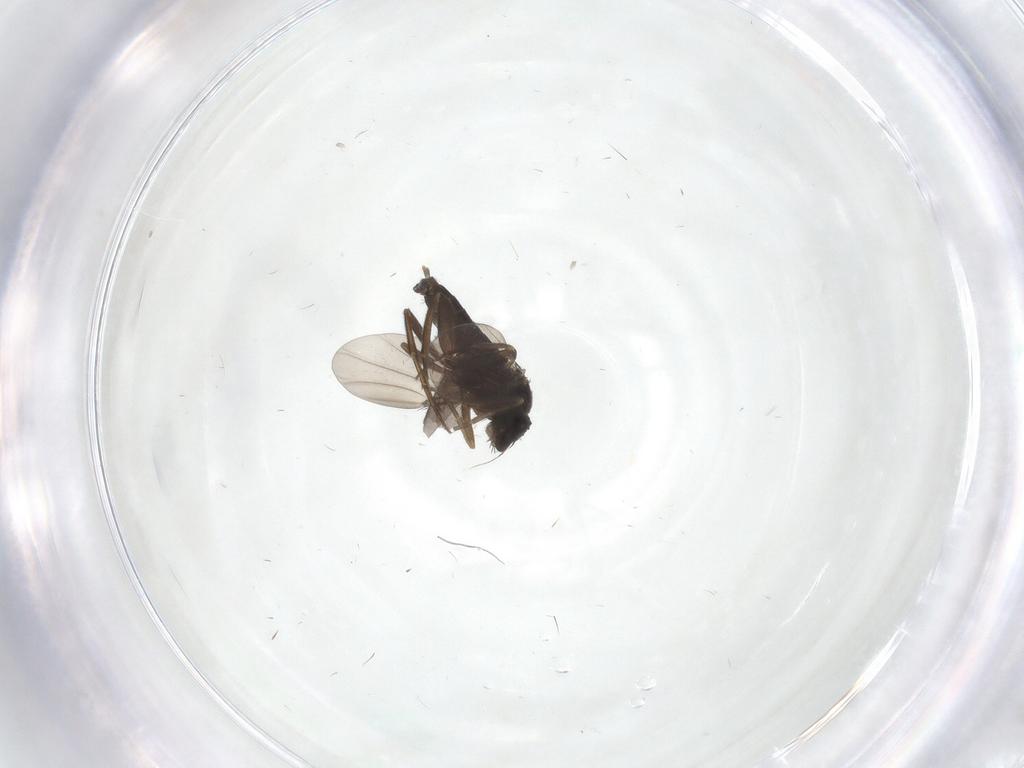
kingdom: Animalia
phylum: Arthropoda
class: Insecta
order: Diptera
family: Phoridae
